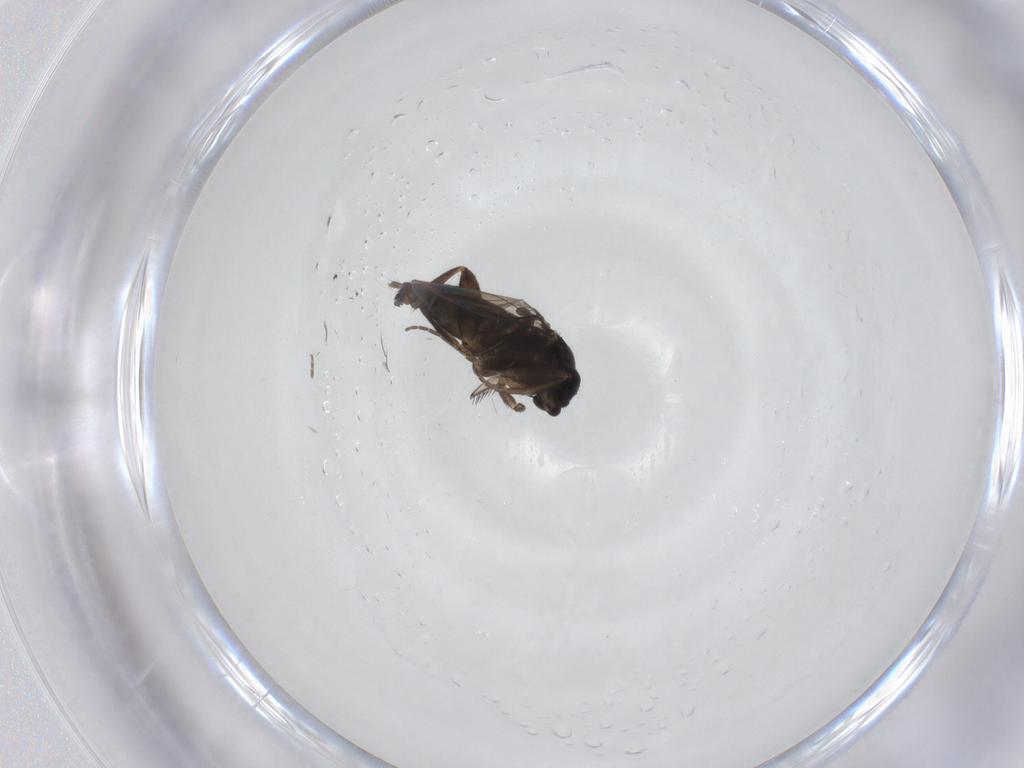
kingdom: Animalia
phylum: Arthropoda
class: Insecta
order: Diptera
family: Phoridae
